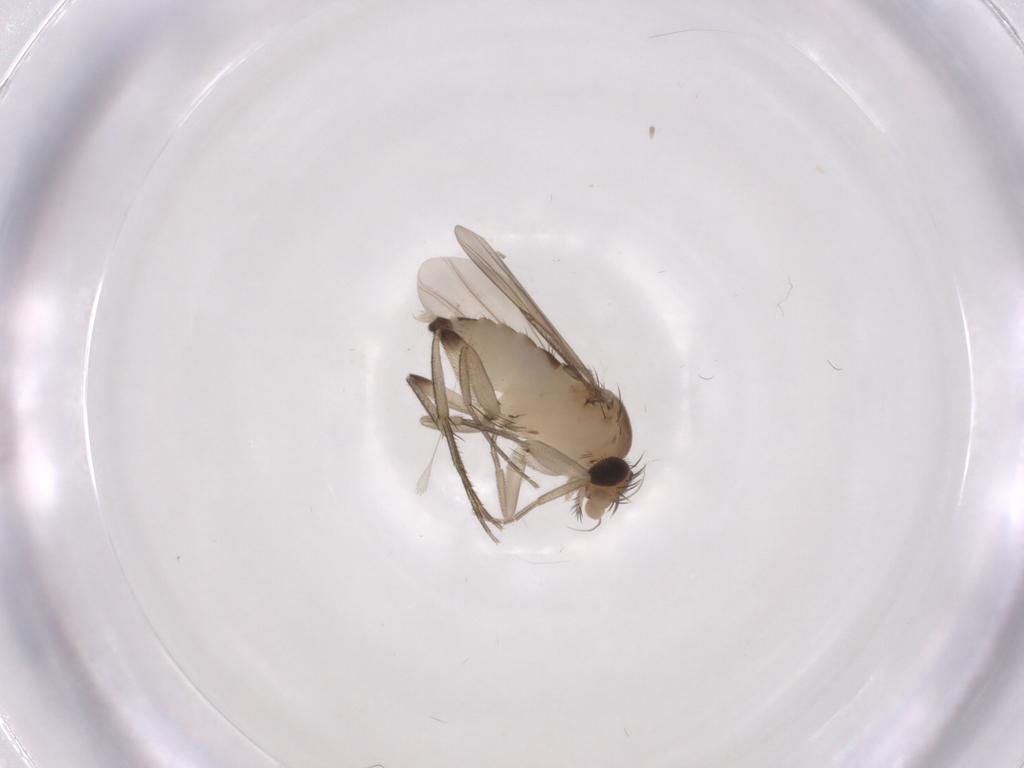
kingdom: Animalia
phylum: Arthropoda
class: Insecta
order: Diptera
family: Phoridae
